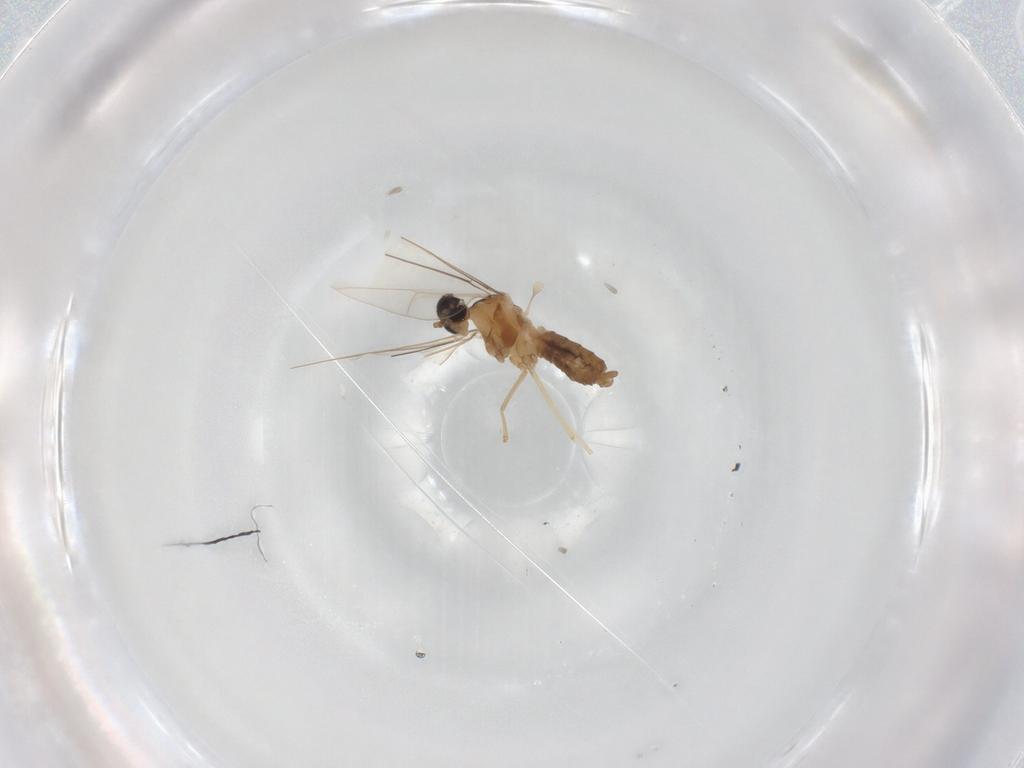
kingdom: Animalia
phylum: Arthropoda
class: Insecta
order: Diptera
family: Cecidomyiidae
